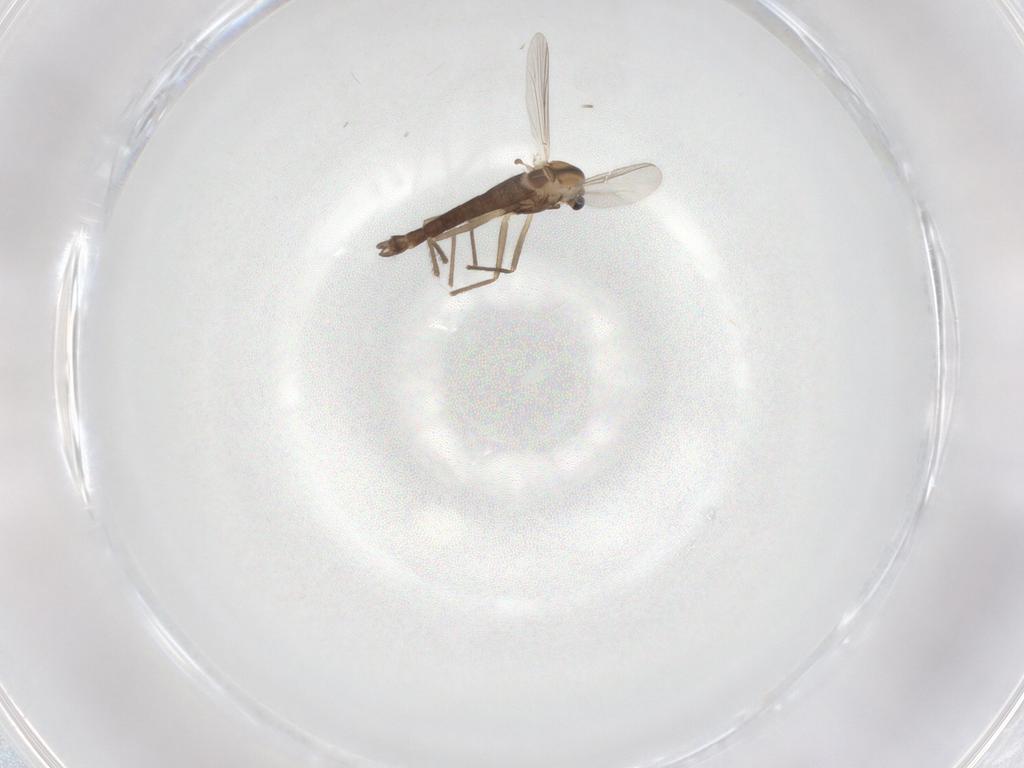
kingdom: Animalia
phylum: Arthropoda
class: Insecta
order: Diptera
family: Chironomidae
